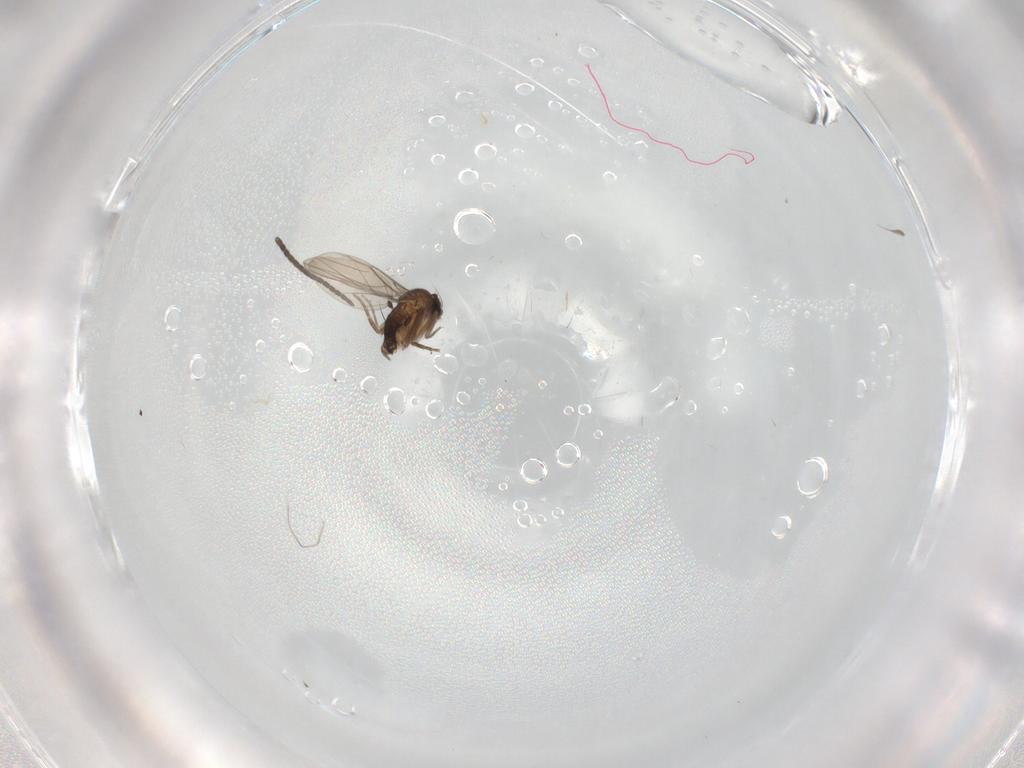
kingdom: Animalia
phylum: Arthropoda
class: Insecta
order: Diptera
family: Sciaridae
